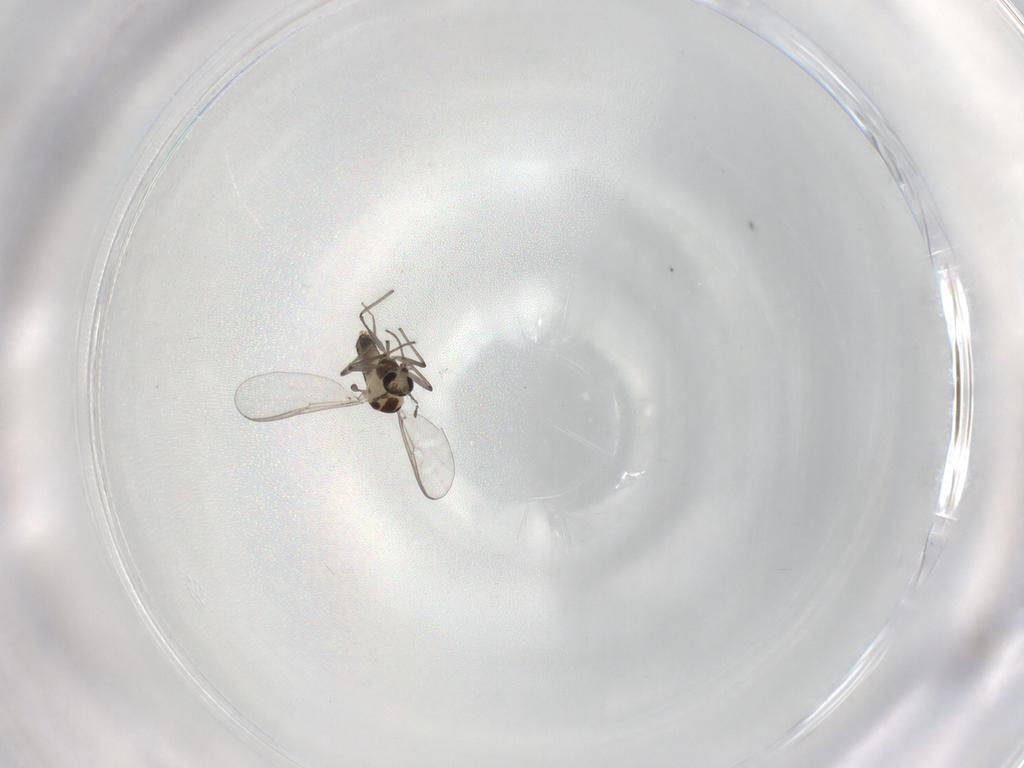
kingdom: Animalia
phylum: Arthropoda
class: Insecta
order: Diptera
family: Chironomidae
